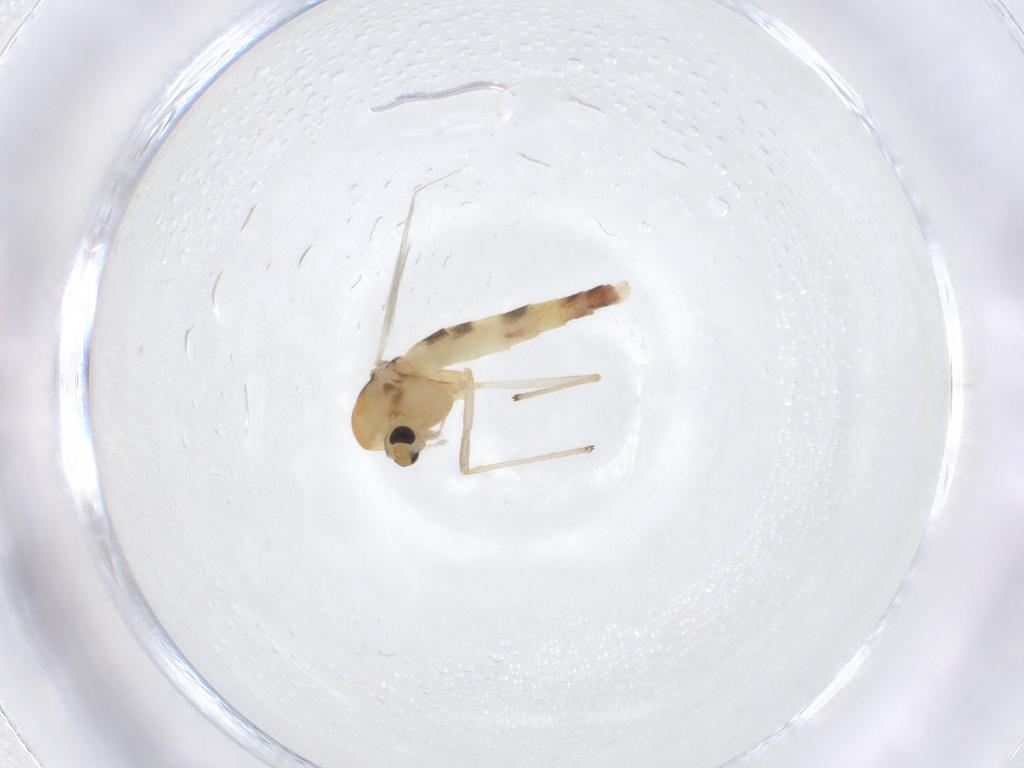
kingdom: Animalia
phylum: Arthropoda
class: Insecta
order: Diptera
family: Chironomidae
